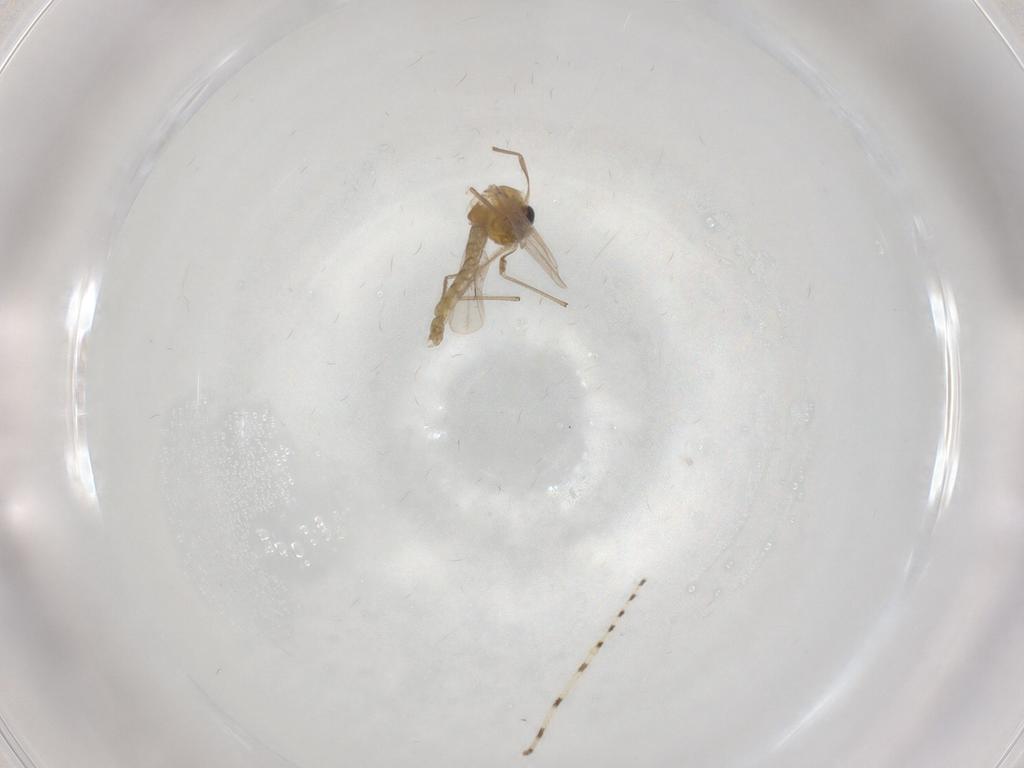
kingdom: Animalia
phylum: Arthropoda
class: Insecta
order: Diptera
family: Chironomidae
